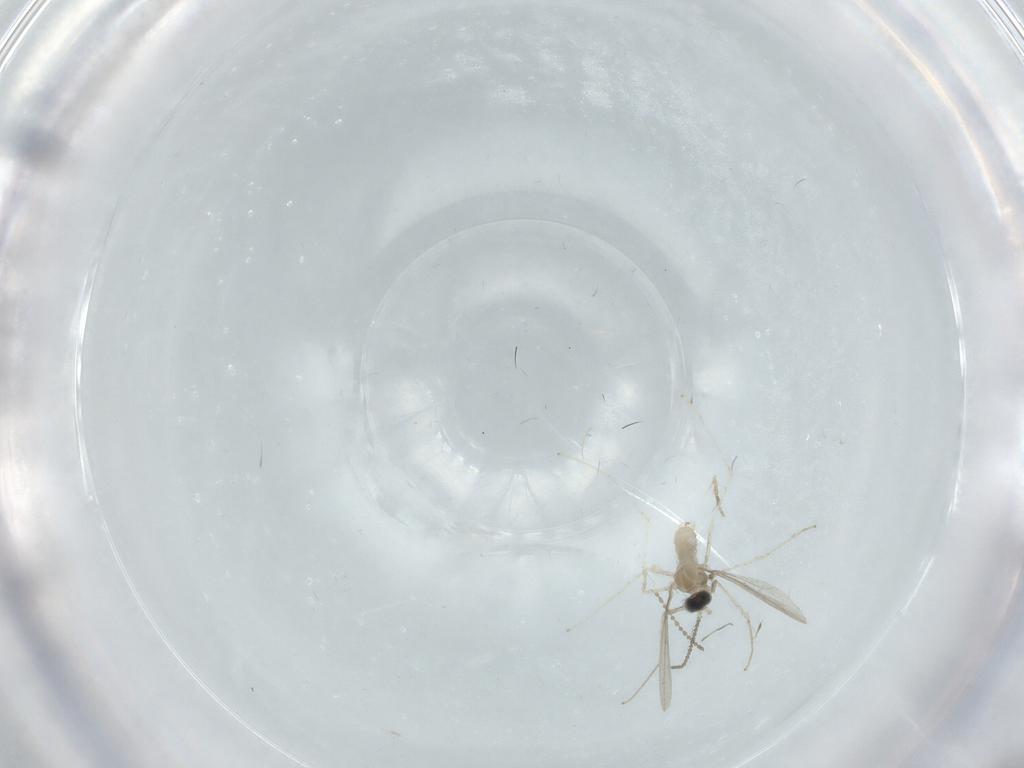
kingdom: Animalia
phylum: Arthropoda
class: Insecta
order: Diptera
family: Cecidomyiidae
